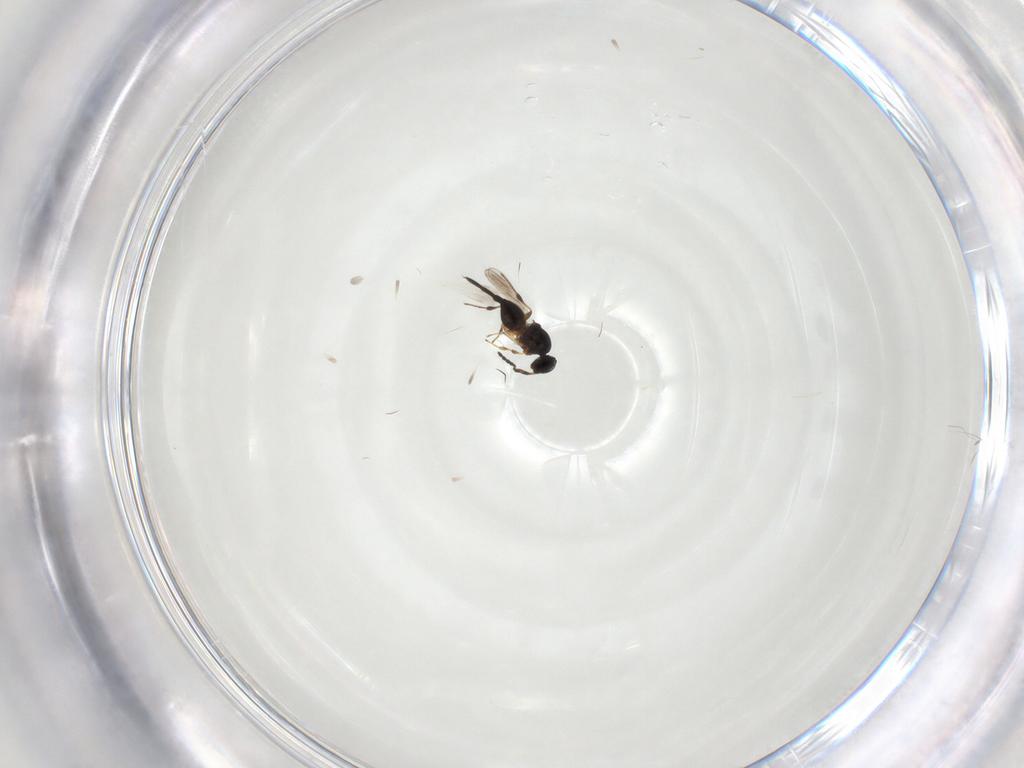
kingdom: Animalia
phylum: Arthropoda
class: Insecta
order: Hymenoptera
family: Platygastridae
